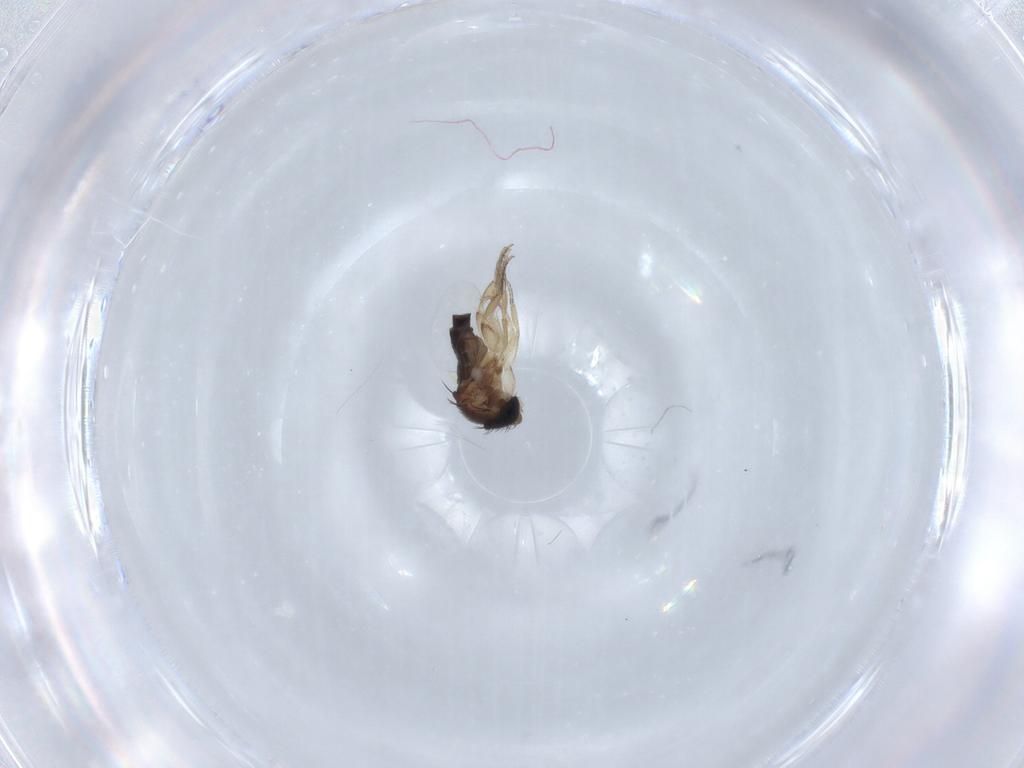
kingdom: Animalia
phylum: Arthropoda
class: Insecta
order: Diptera
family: Phoridae
